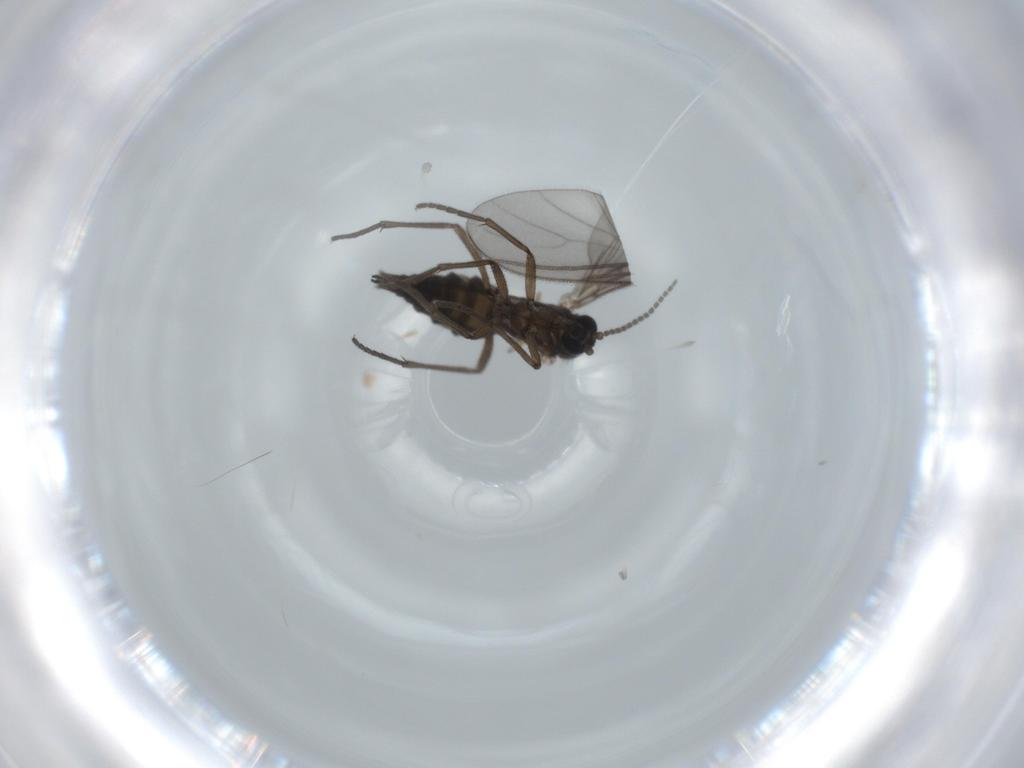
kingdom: Animalia
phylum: Arthropoda
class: Insecta
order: Diptera
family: Sciaridae
